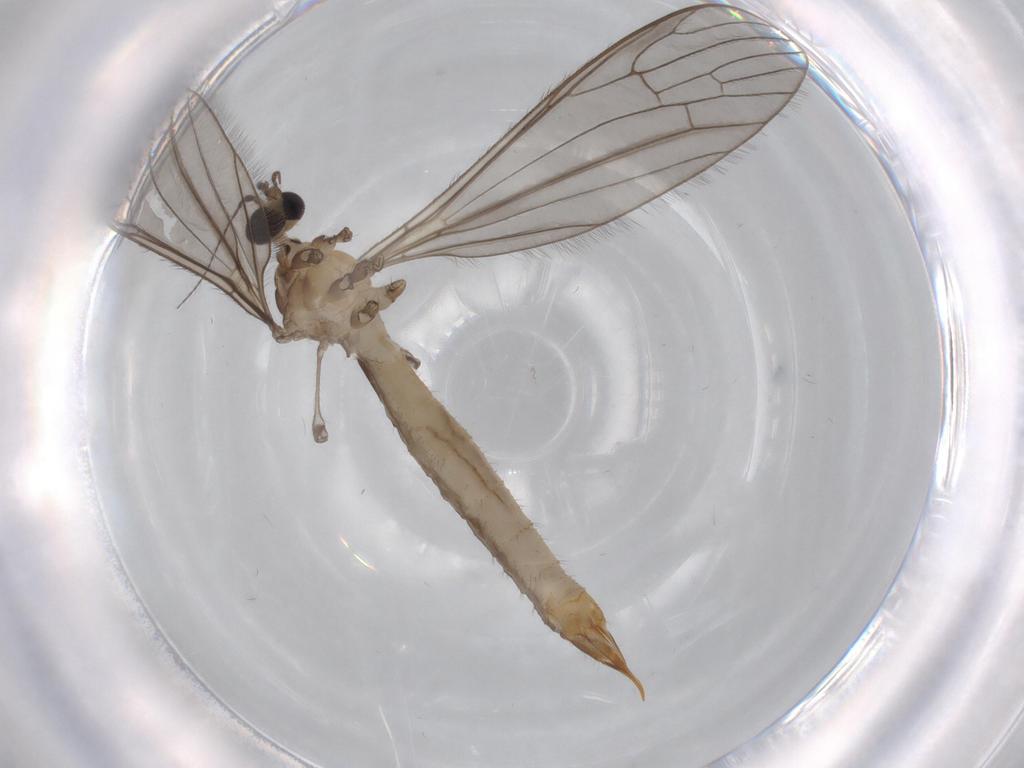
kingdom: Animalia
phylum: Arthropoda
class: Insecta
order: Diptera
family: Limoniidae
